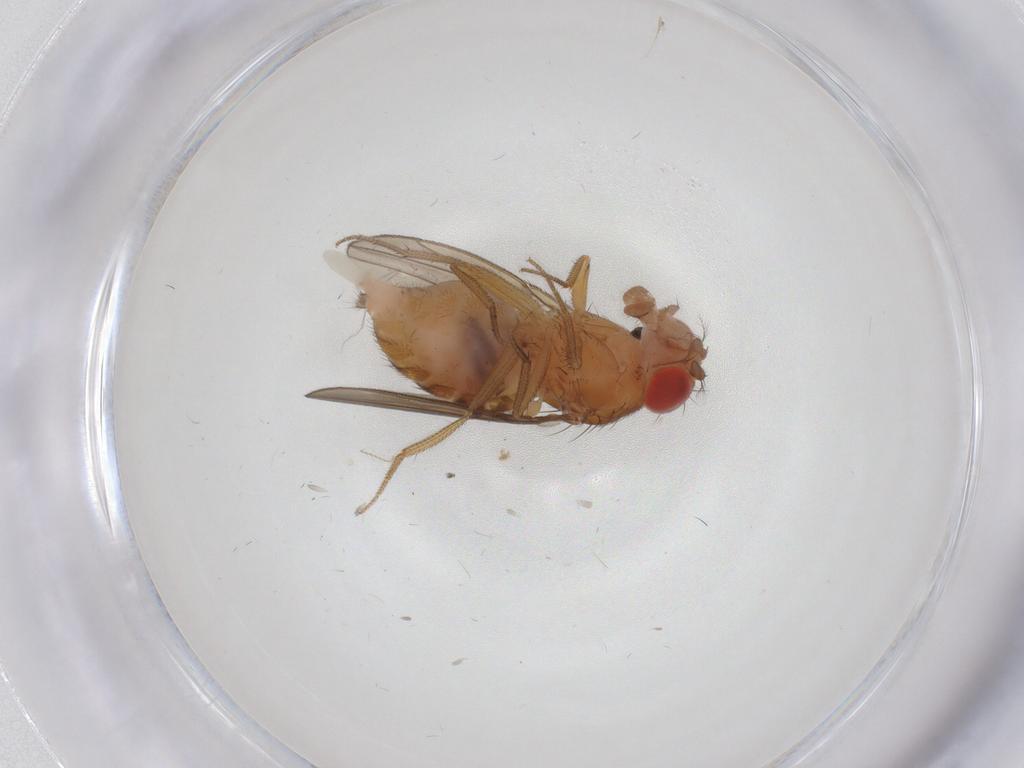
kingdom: Animalia
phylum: Arthropoda
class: Insecta
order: Diptera
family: Drosophilidae
